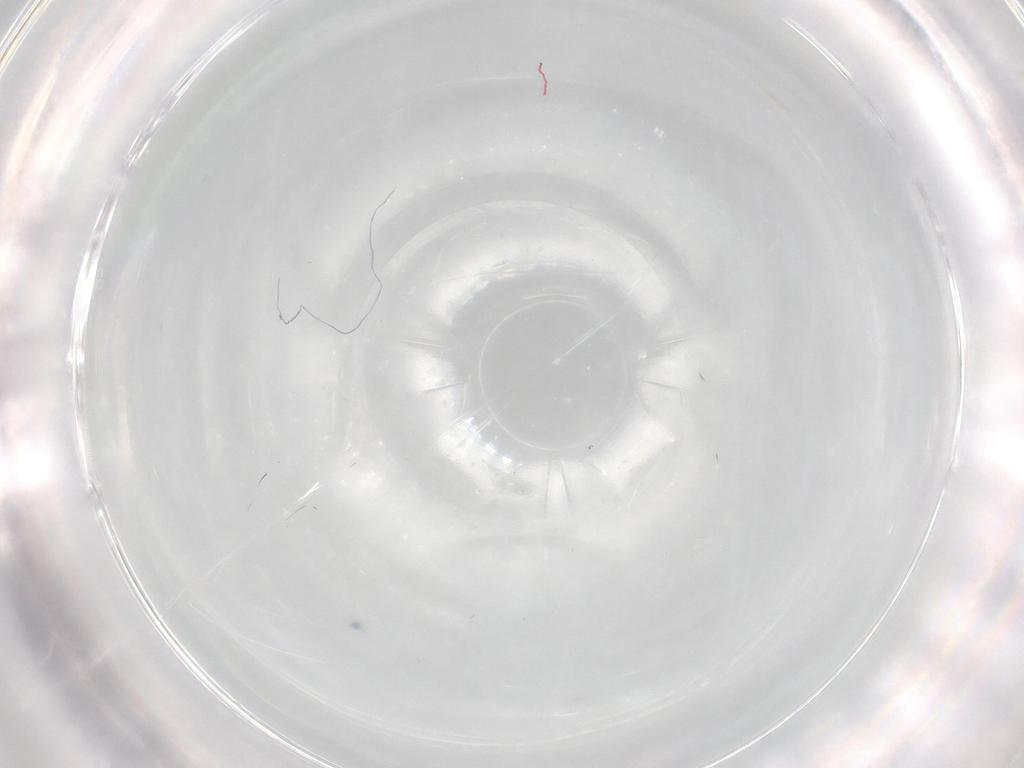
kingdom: Animalia
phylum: Arthropoda
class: Insecta
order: Diptera
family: Cecidomyiidae
